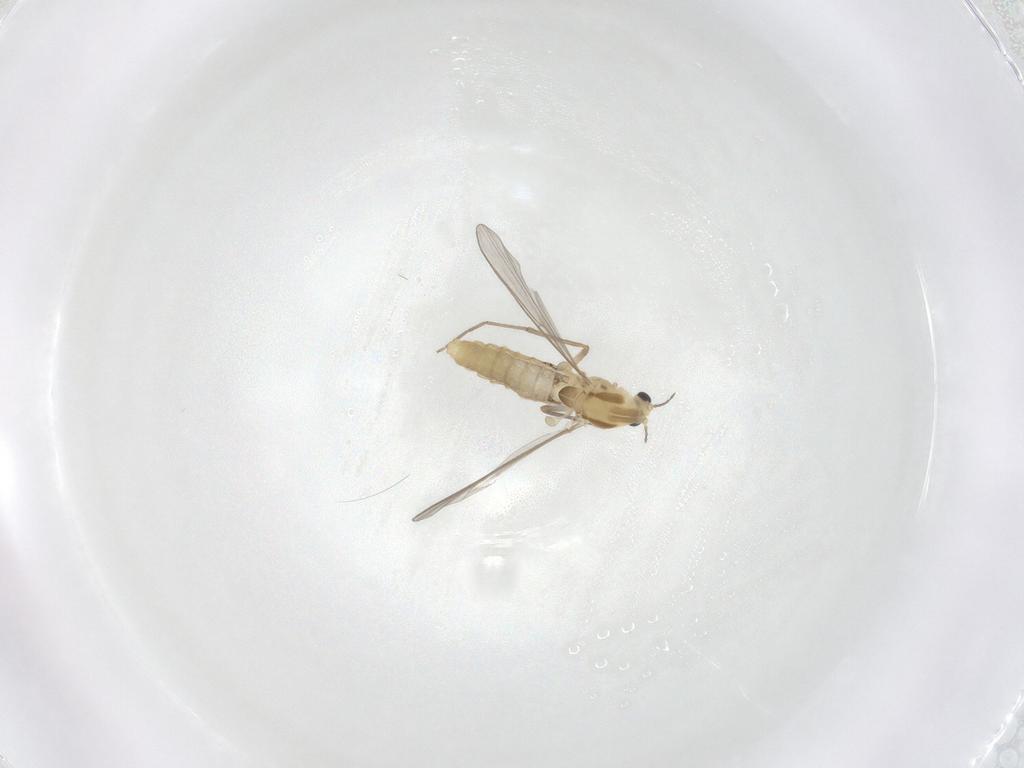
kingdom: Animalia
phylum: Arthropoda
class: Insecta
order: Diptera
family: Chironomidae
